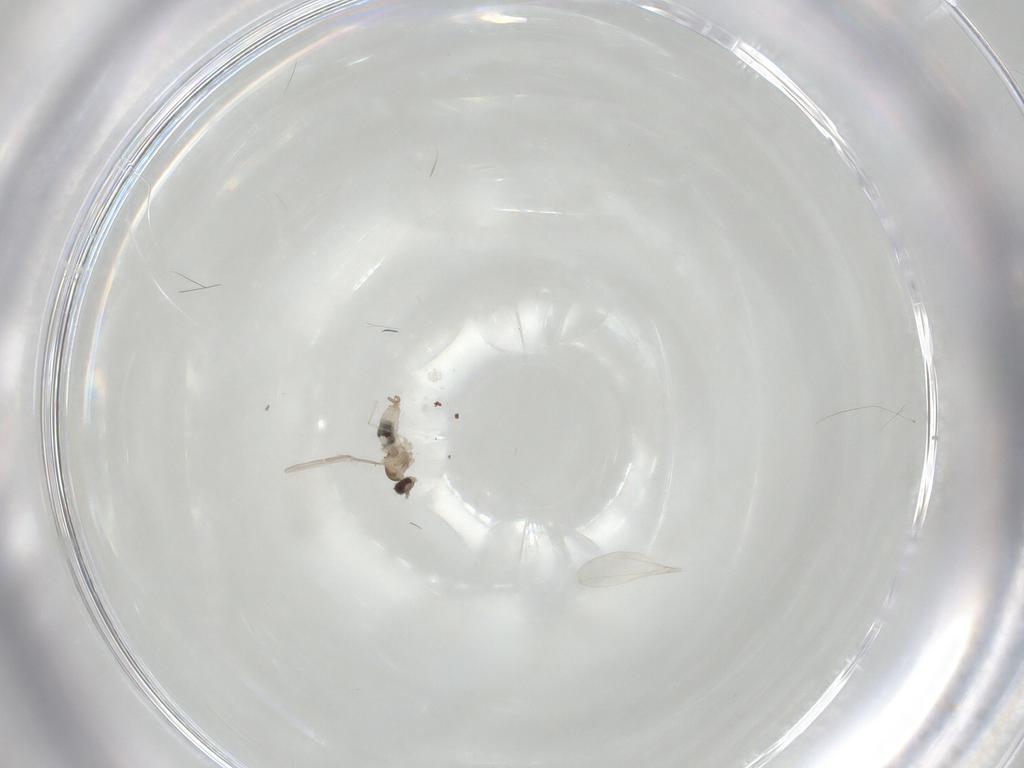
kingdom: Animalia
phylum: Arthropoda
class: Insecta
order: Diptera
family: Cecidomyiidae
